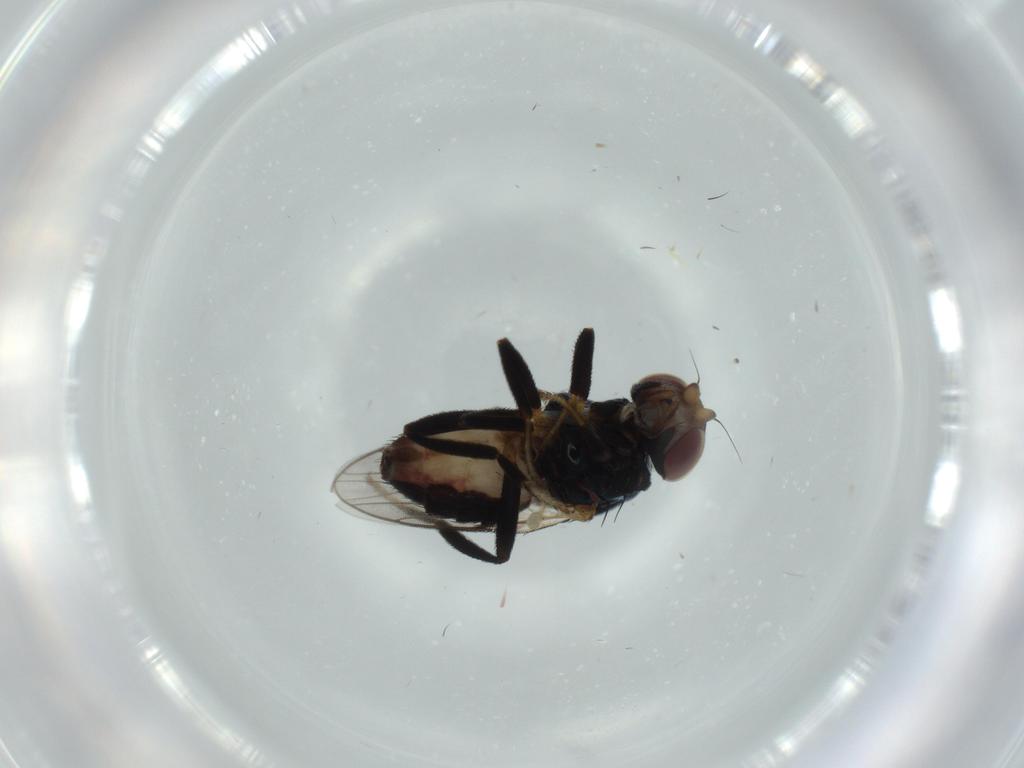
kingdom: Animalia
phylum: Arthropoda
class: Insecta
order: Diptera
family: Chloropidae
